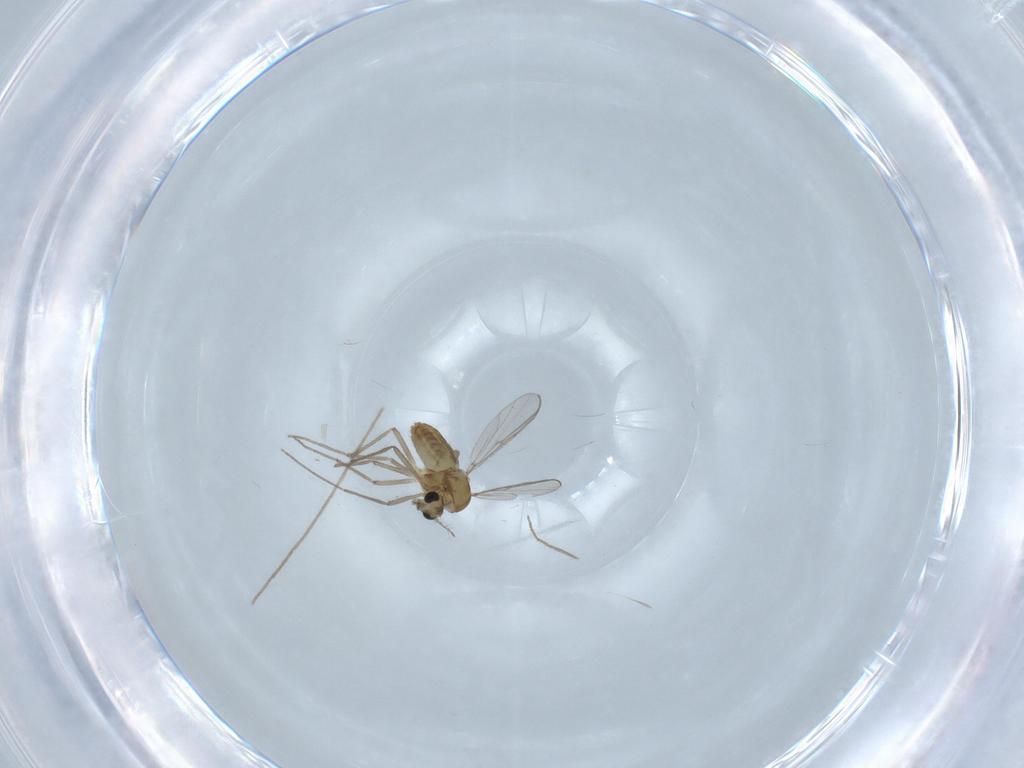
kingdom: Animalia
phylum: Arthropoda
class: Insecta
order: Diptera
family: Chironomidae
